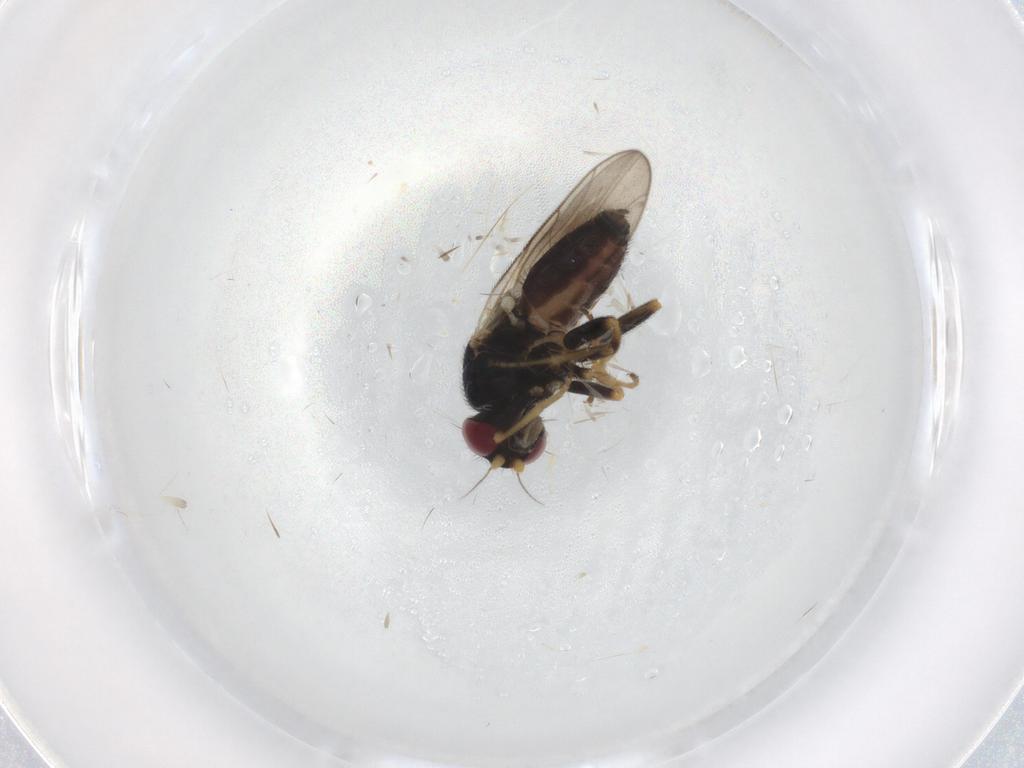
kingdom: Animalia
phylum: Arthropoda
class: Insecta
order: Diptera
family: Chloropidae
